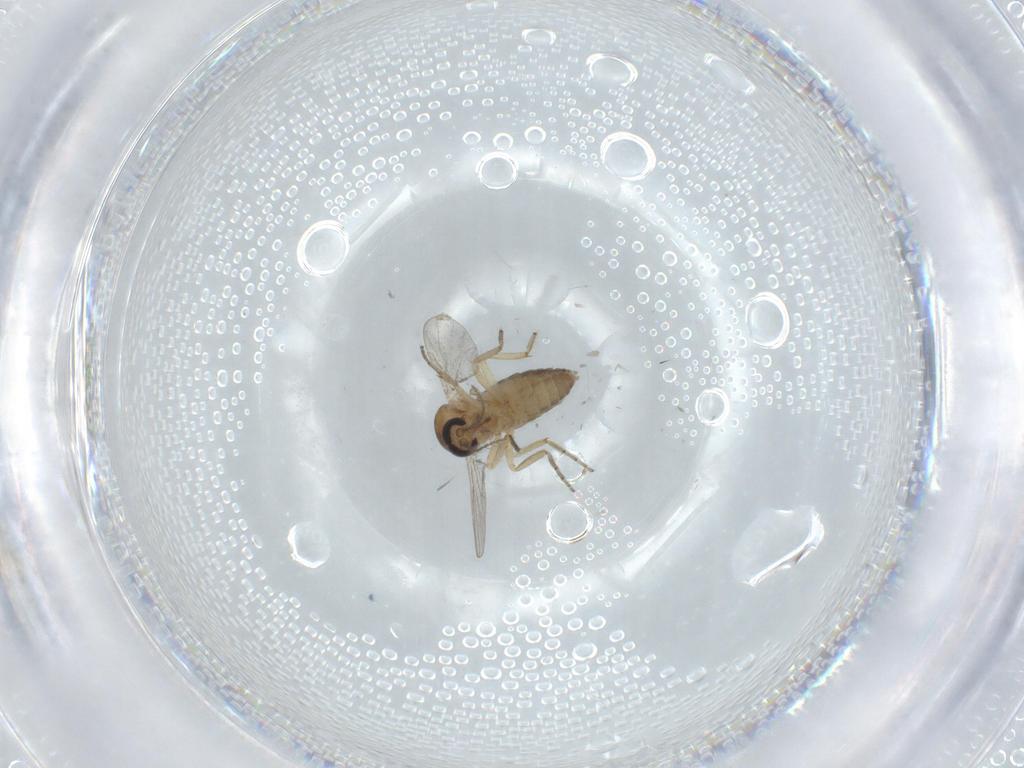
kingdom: Animalia
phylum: Arthropoda
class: Insecta
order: Diptera
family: Ceratopogonidae
